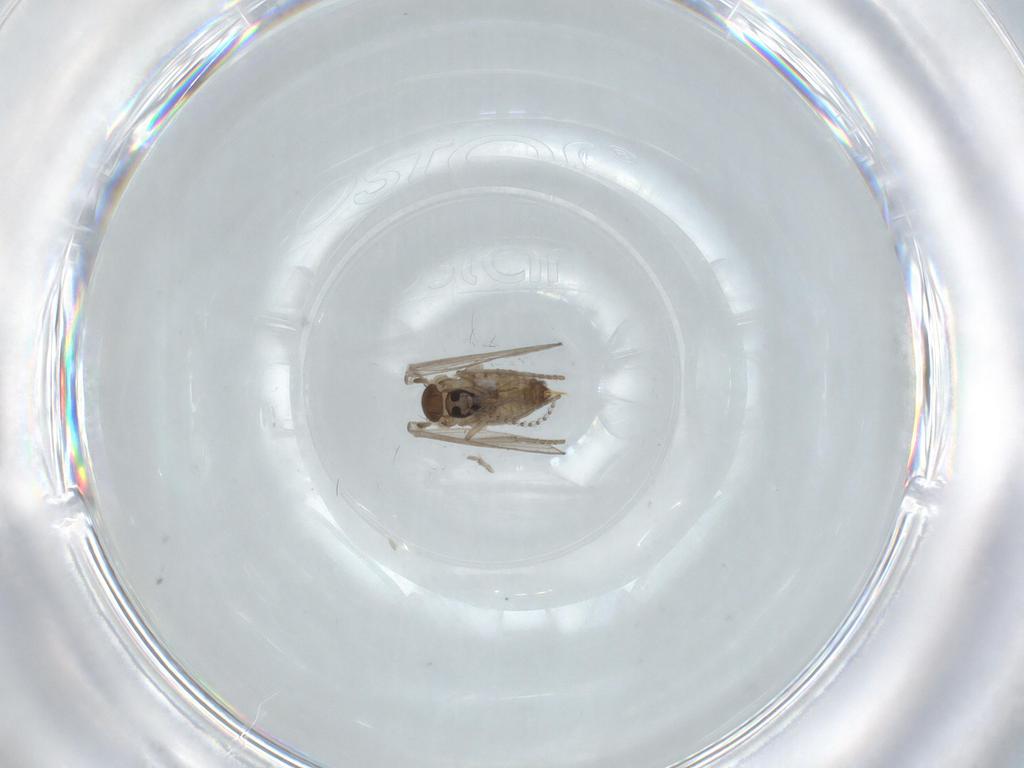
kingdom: Animalia
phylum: Arthropoda
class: Insecta
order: Diptera
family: Psychodidae
